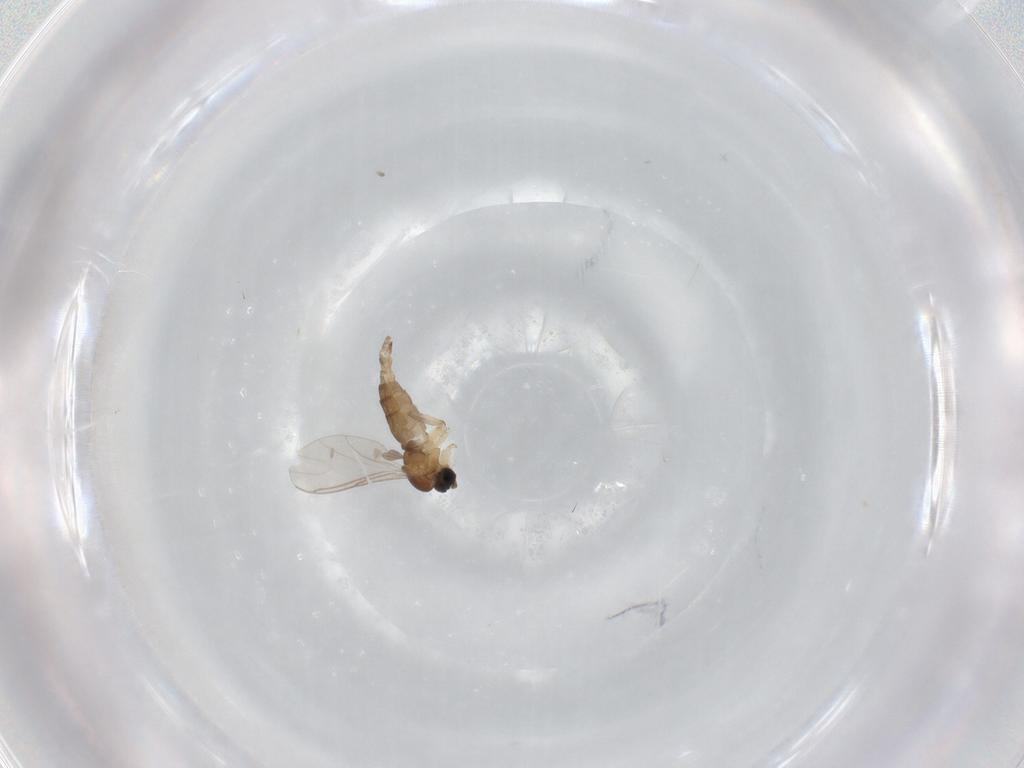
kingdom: Animalia
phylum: Arthropoda
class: Insecta
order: Diptera
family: Sciaridae
